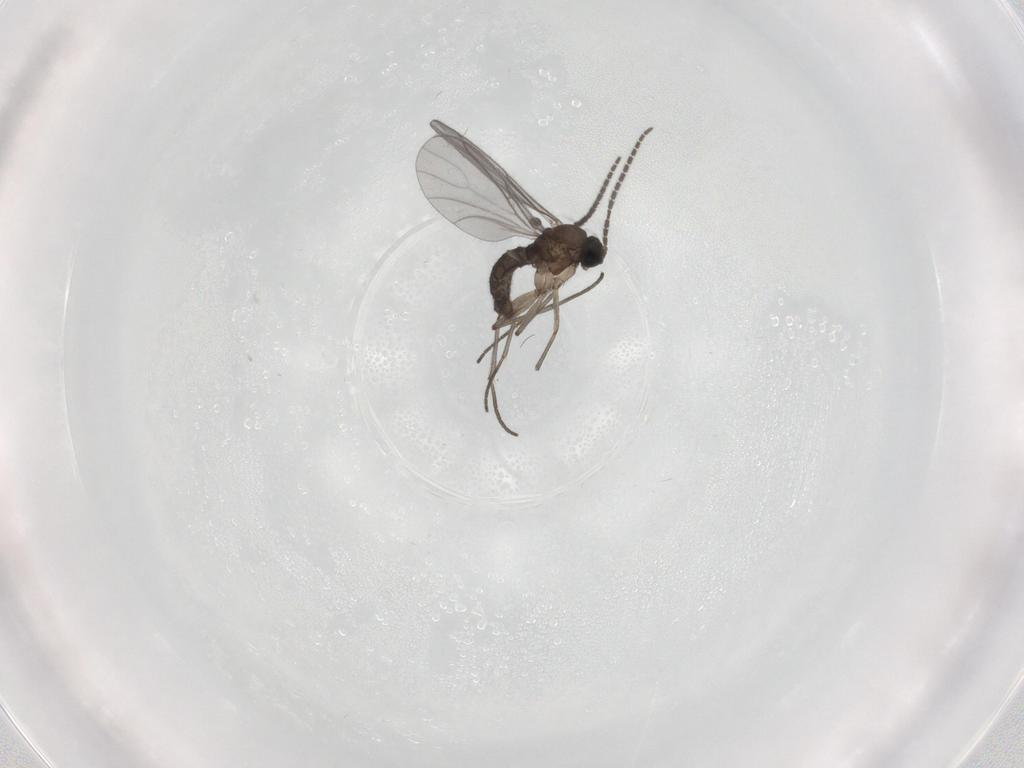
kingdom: Animalia
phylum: Arthropoda
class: Insecta
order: Diptera
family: Sciaridae
